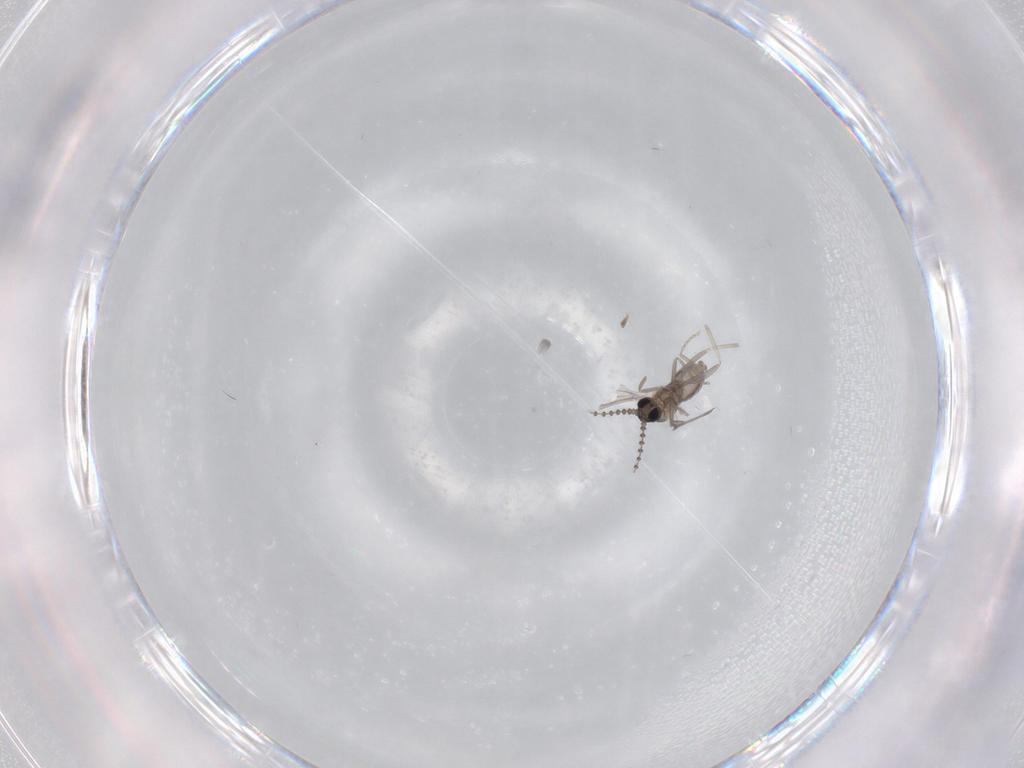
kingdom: Animalia
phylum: Arthropoda
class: Insecta
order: Diptera
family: Cecidomyiidae
